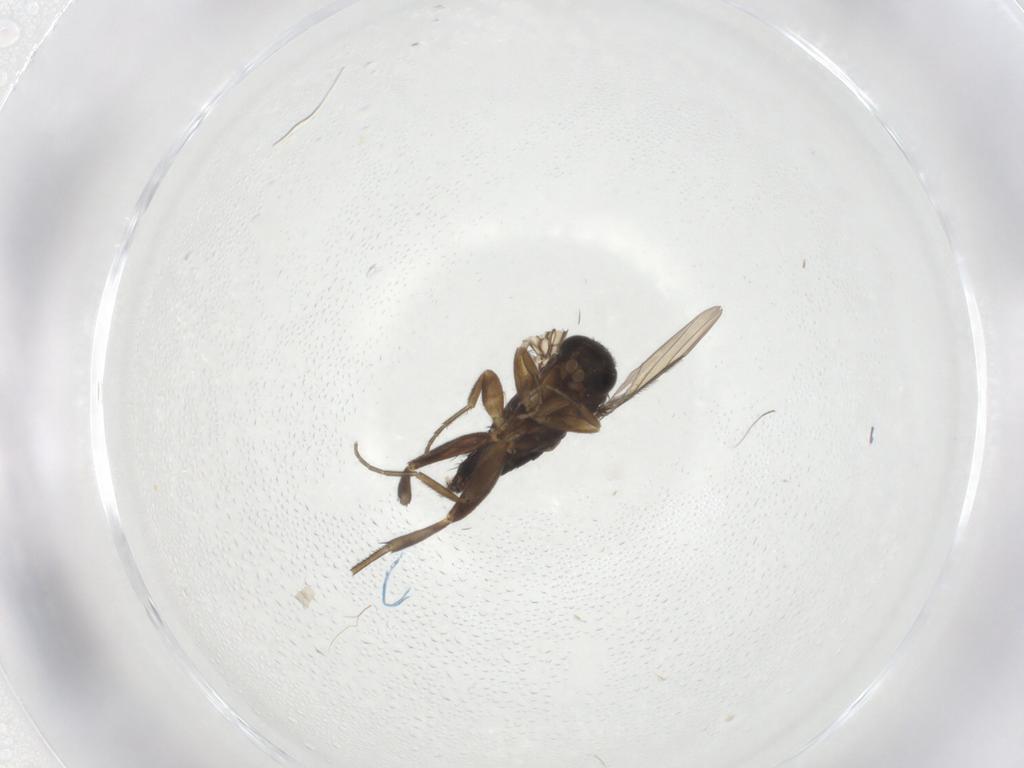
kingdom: Animalia
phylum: Arthropoda
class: Insecta
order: Diptera
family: Phoridae
